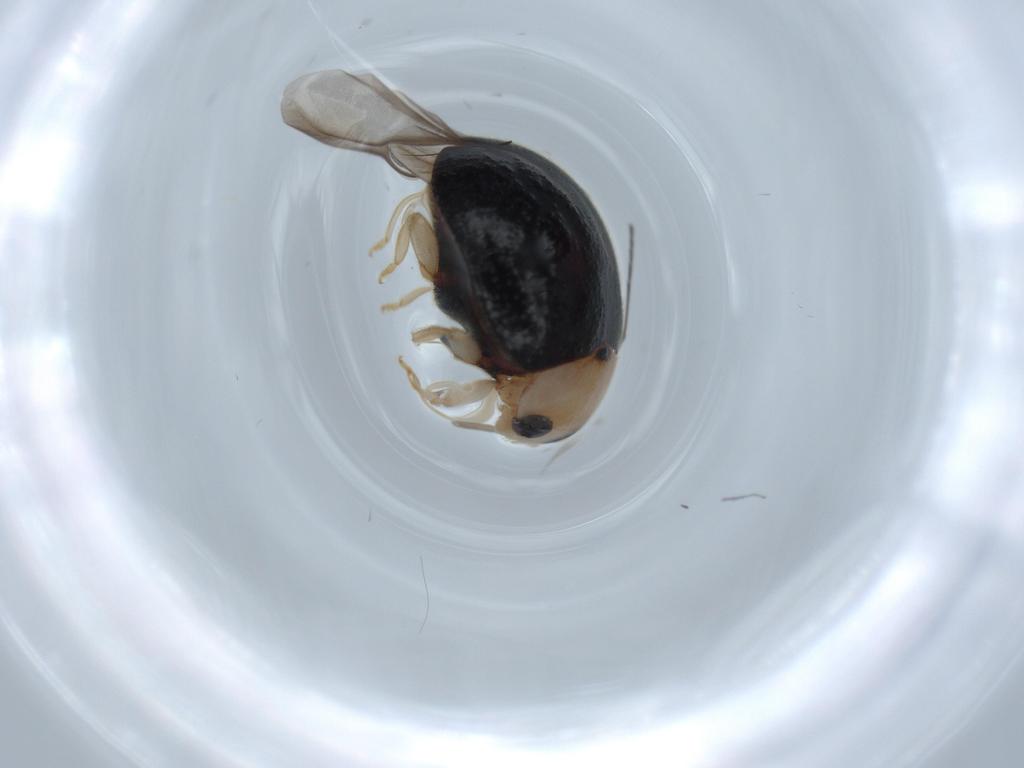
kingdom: Animalia
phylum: Arthropoda
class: Insecta
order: Coleoptera
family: Coccinellidae
